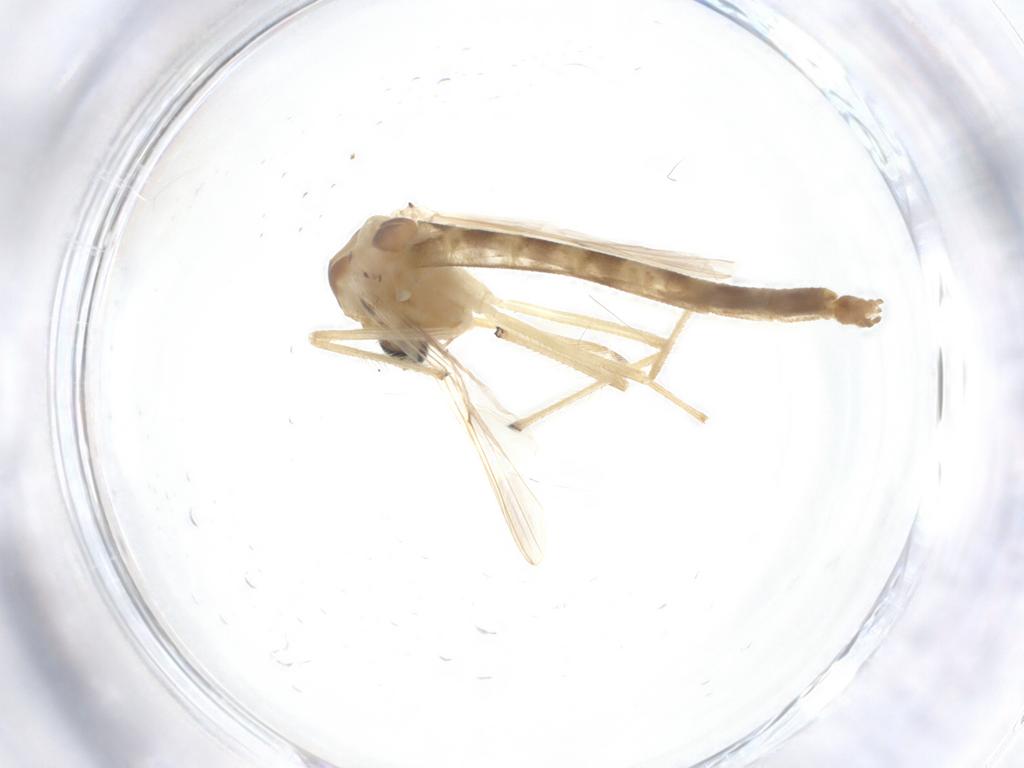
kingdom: Animalia
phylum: Arthropoda
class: Insecta
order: Diptera
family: Chironomidae
